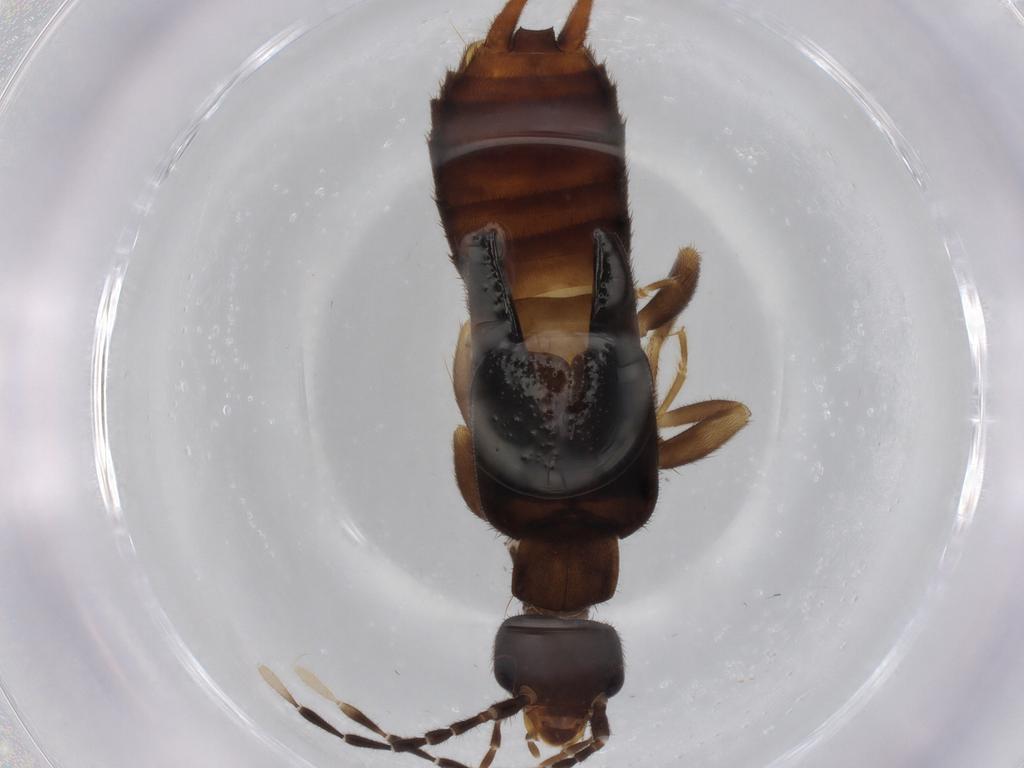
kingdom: Animalia
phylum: Arthropoda
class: Insecta
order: Dermaptera
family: Forficulidae
